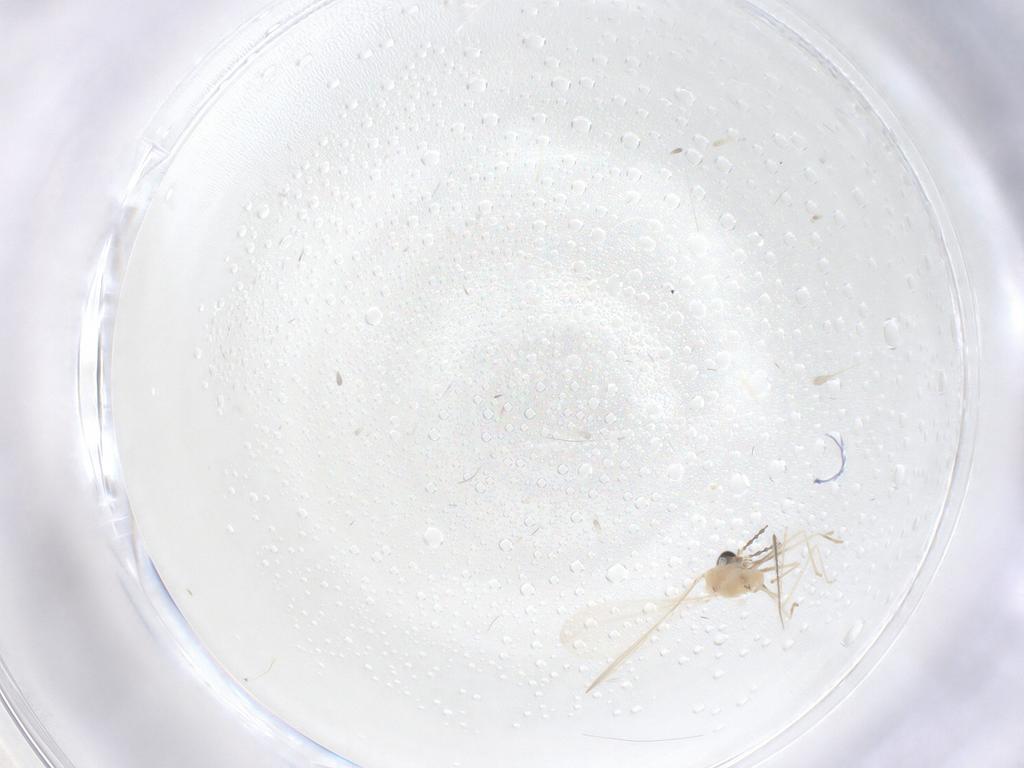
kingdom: Animalia
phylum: Arthropoda
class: Insecta
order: Diptera
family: Cecidomyiidae
